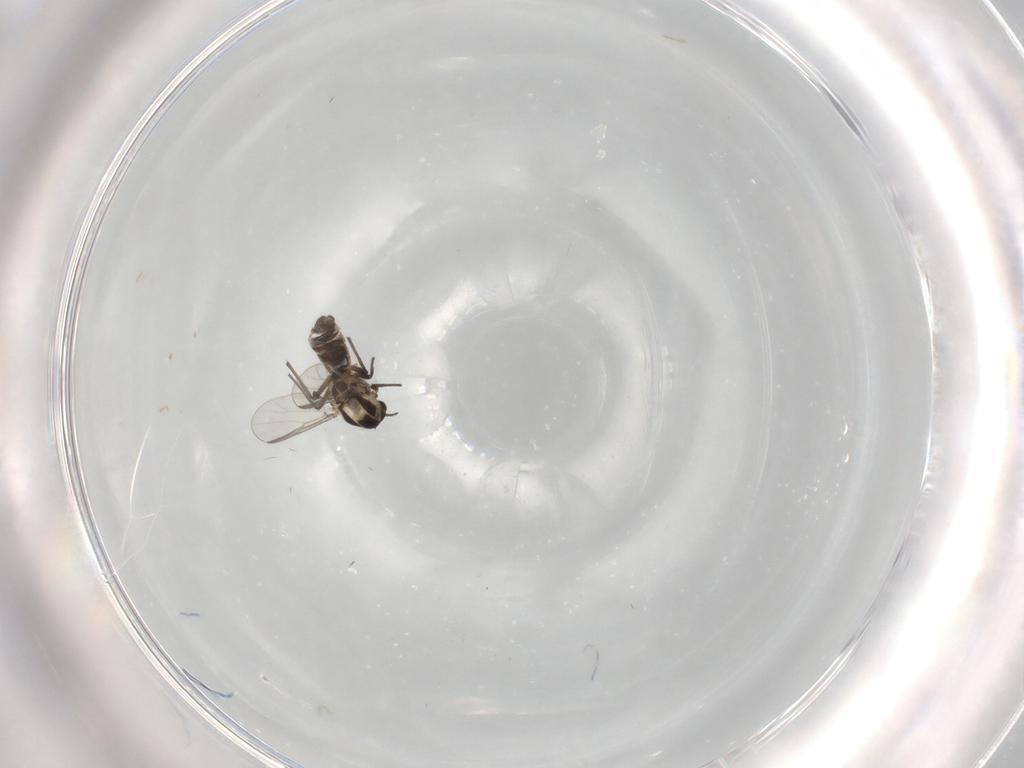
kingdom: Animalia
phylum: Arthropoda
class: Insecta
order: Diptera
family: Chironomidae
